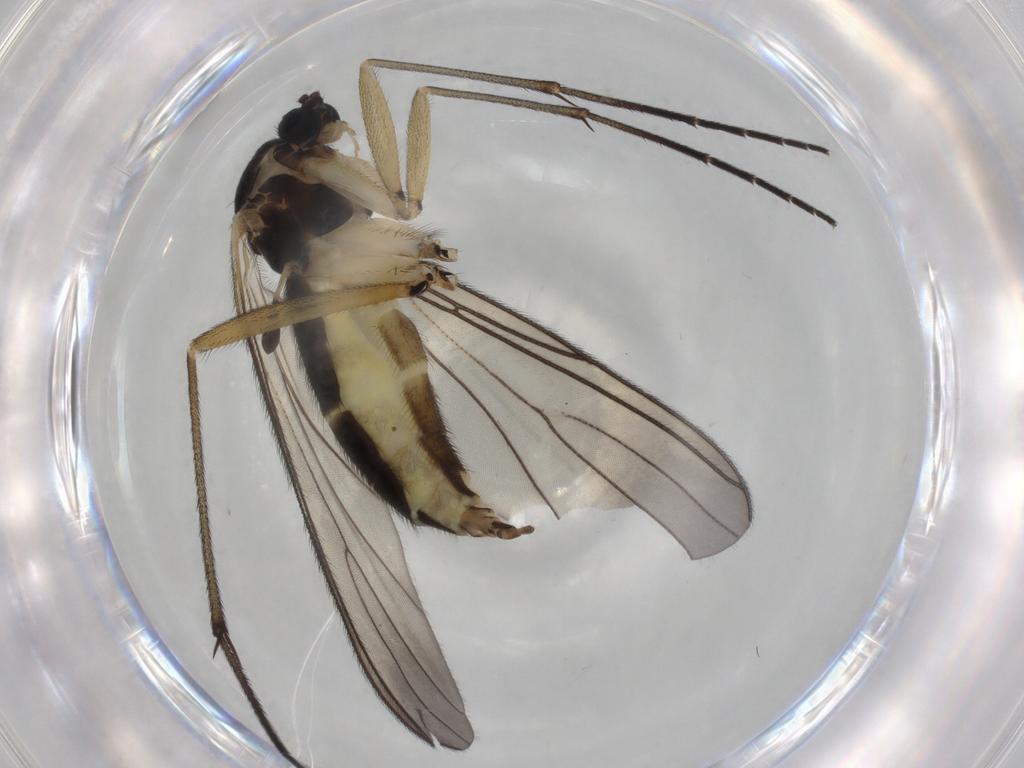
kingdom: Animalia
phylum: Arthropoda
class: Insecta
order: Diptera
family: Sciaridae
